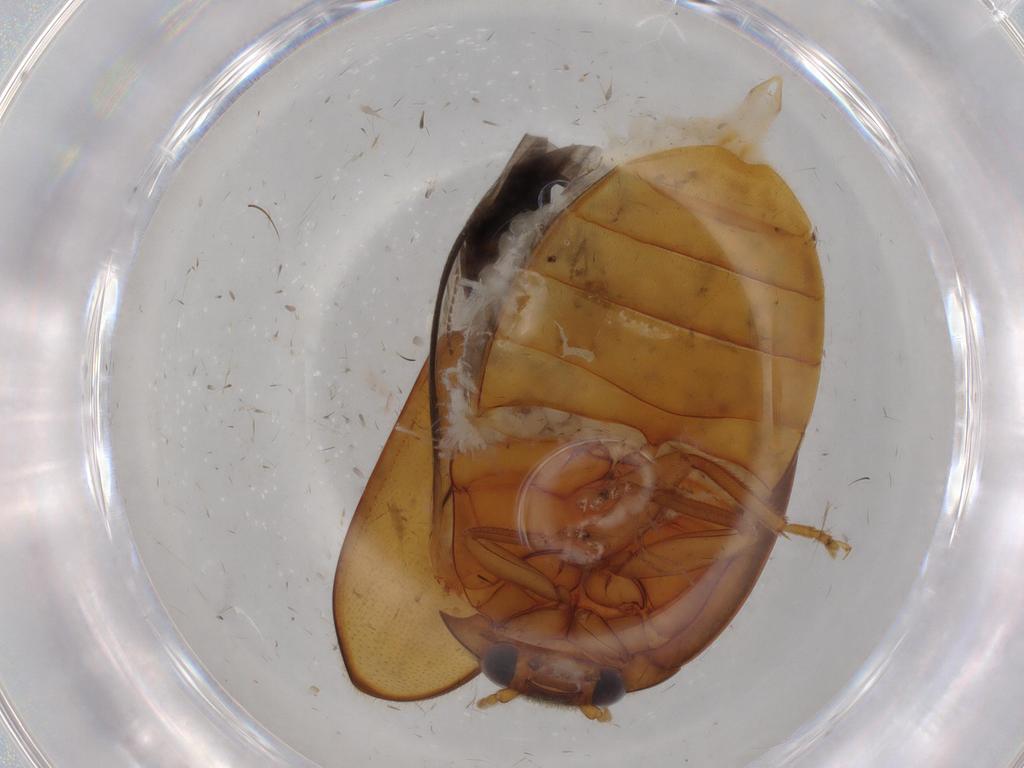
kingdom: Animalia
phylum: Arthropoda
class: Insecta
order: Coleoptera
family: Scirtidae
